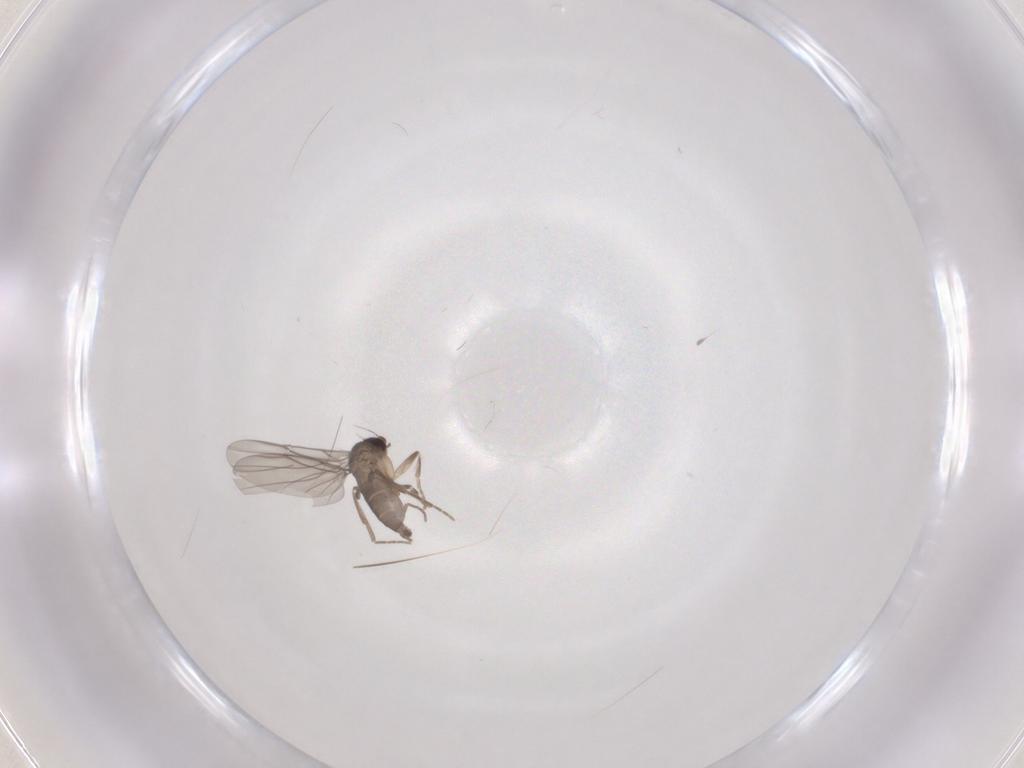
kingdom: Animalia
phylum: Arthropoda
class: Insecta
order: Diptera
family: Phoridae
